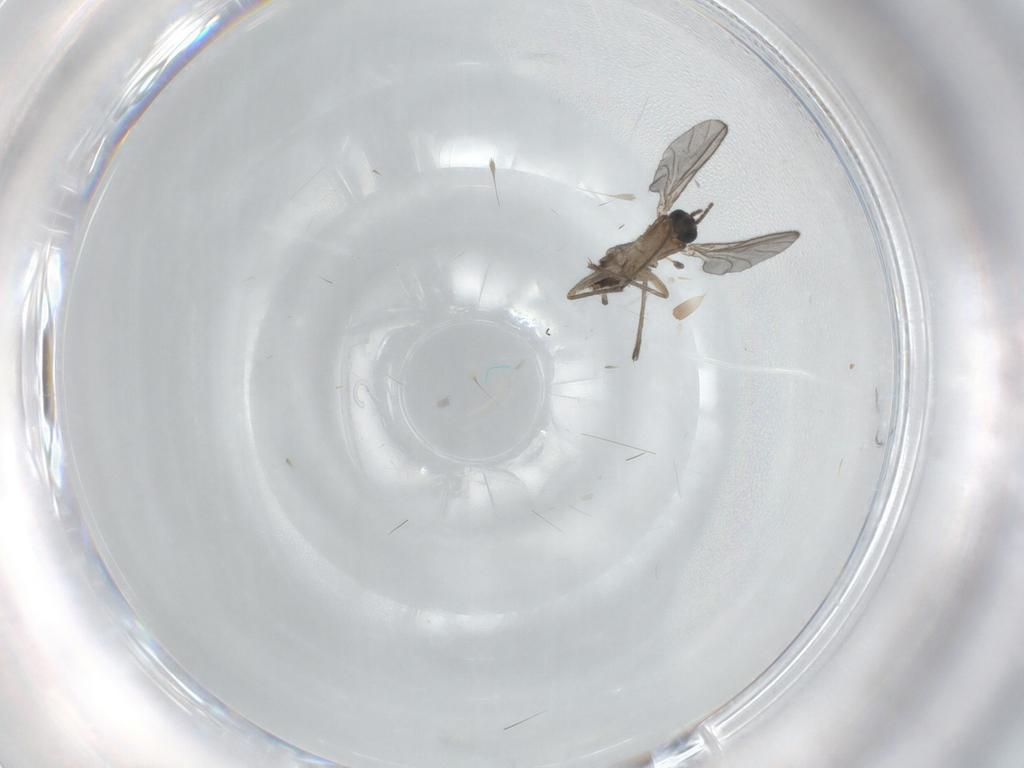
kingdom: Animalia
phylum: Arthropoda
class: Insecta
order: Diptera
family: Sciaridae
